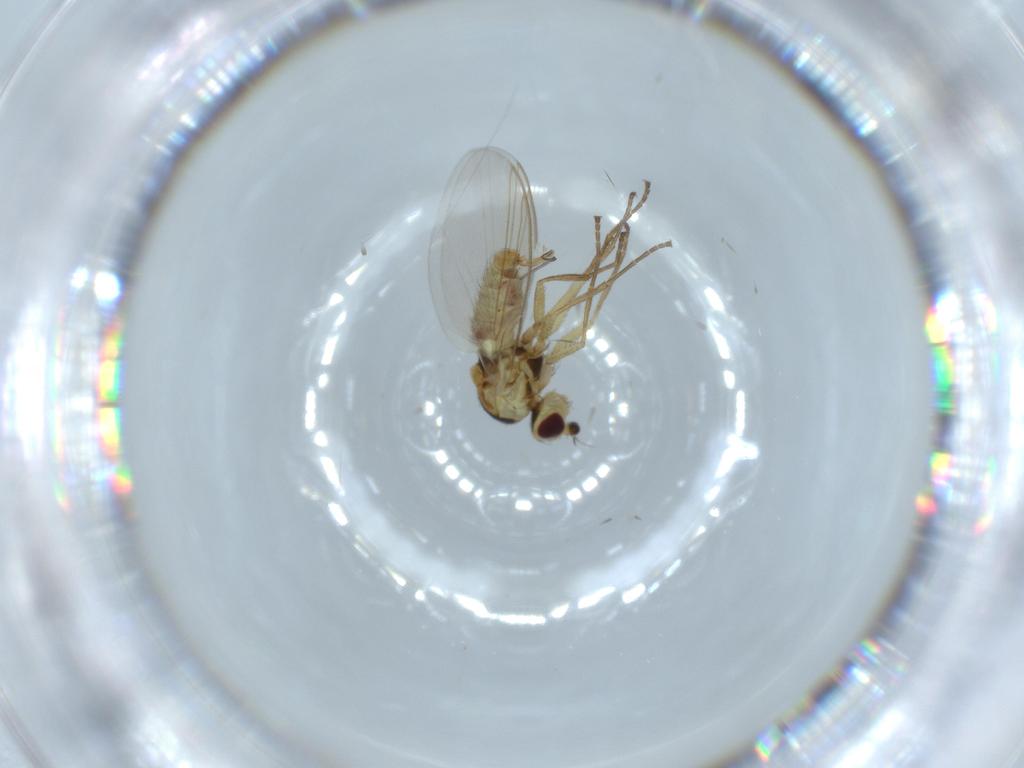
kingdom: Animalia
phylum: Arthropoda
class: Insecta
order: Diptera
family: Agromyzidae
